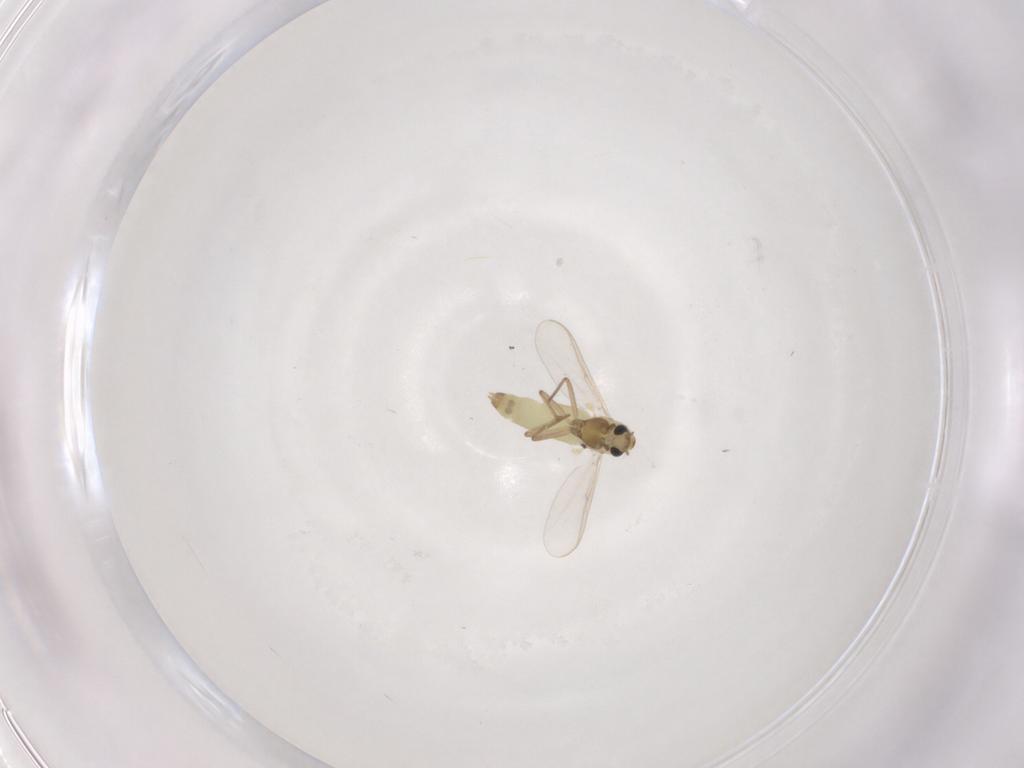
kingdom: Animalia
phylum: Arthropoda
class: Insecta
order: Diptera
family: Chironomidae
